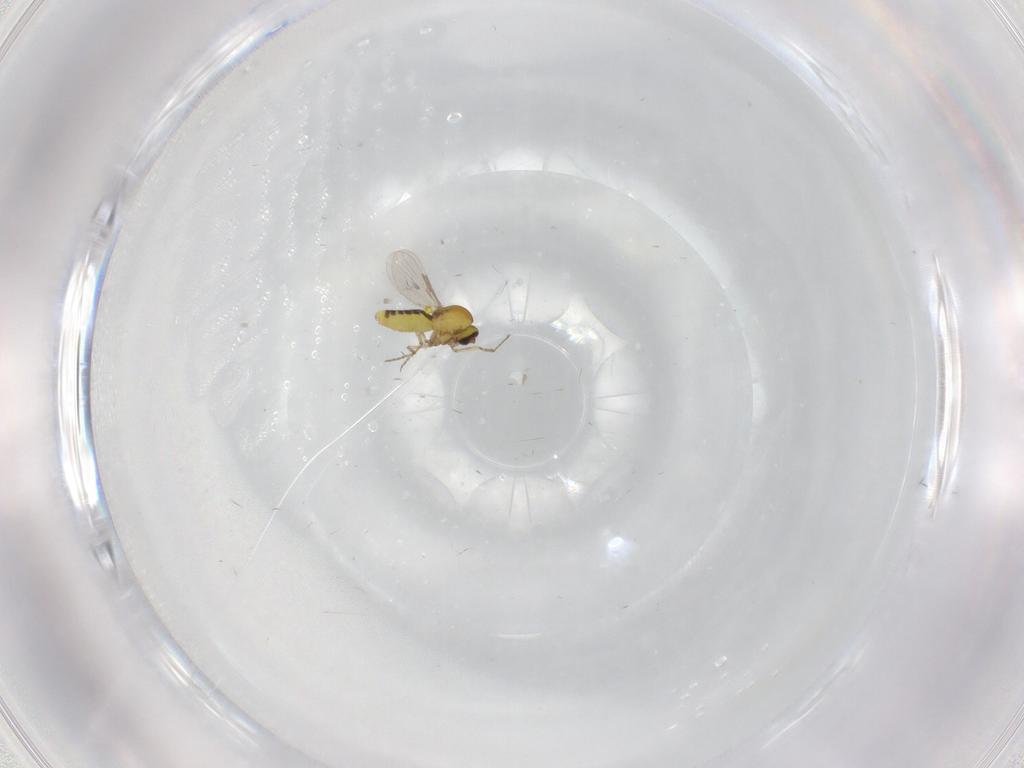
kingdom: Animalia
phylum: Arthropoda
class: Insecta
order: Diptera
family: Ceratopogonidae
